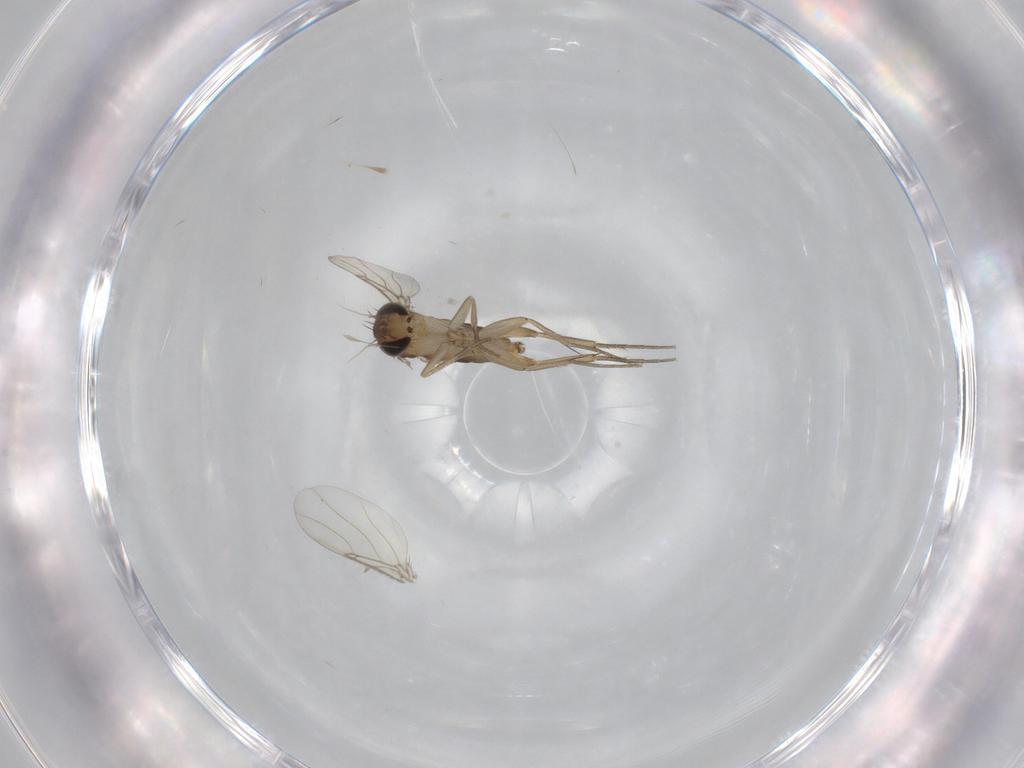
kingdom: Animalia
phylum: Arthropoda
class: Insecta
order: Diptera
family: Phoridae
